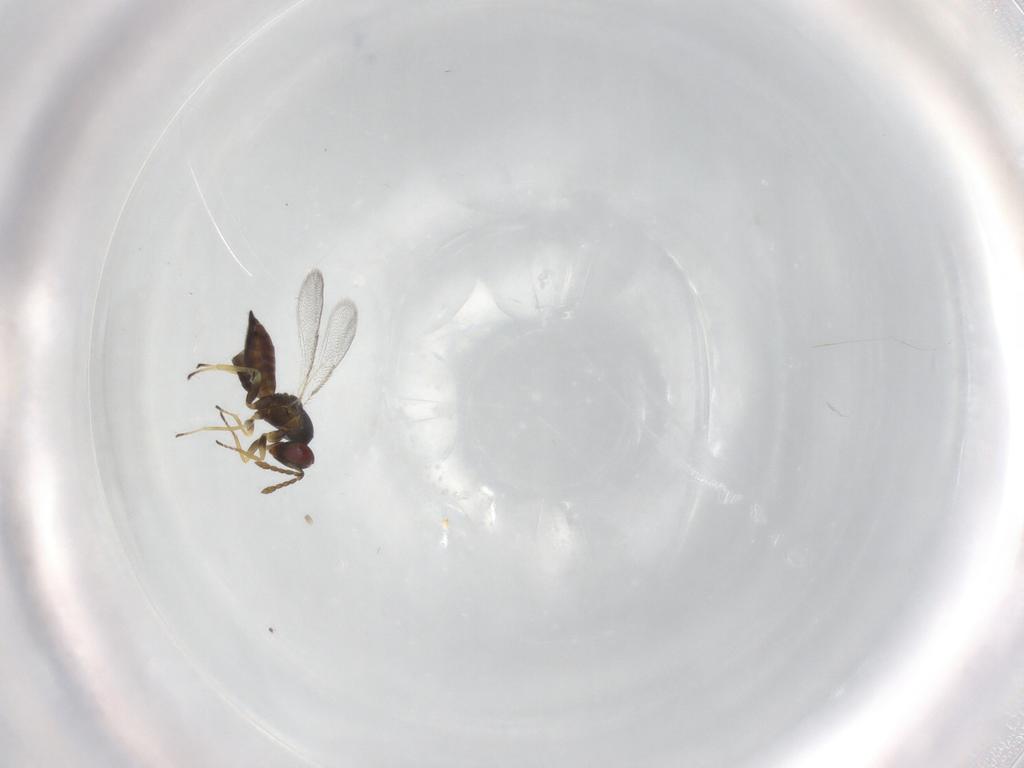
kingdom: Animalia
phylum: Arthropoda
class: Insecta
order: Hymenoptera
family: Eulophidae
